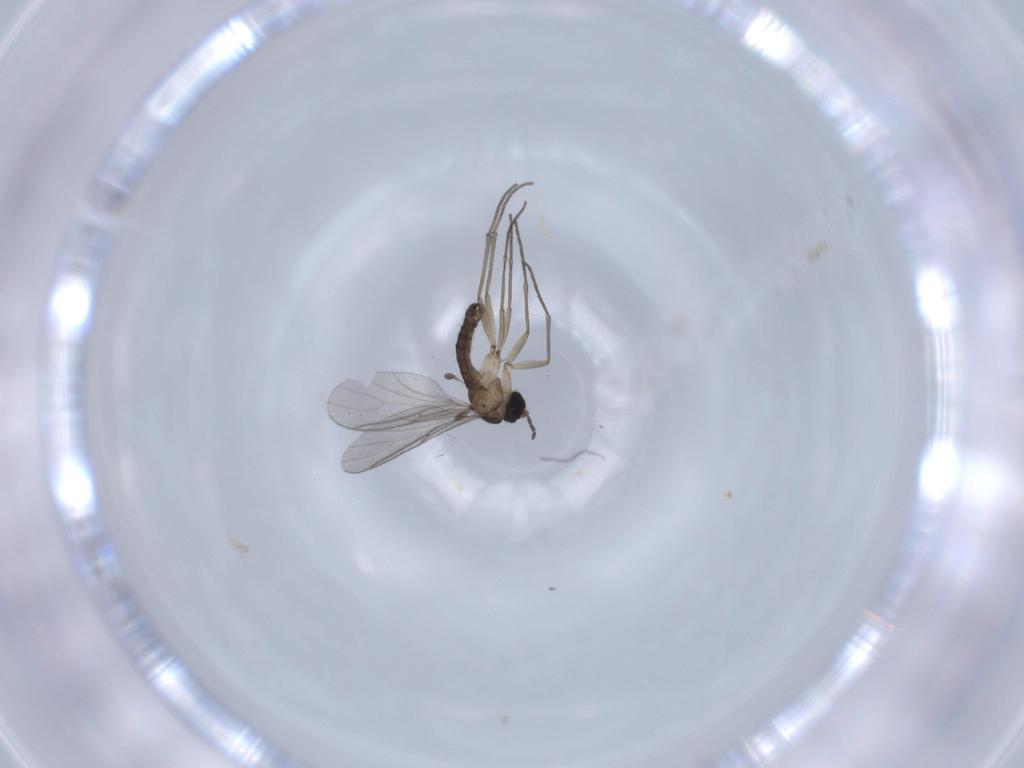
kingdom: Animalia
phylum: Arthropoda
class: Insecta
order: Diptera
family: Sciaridae
